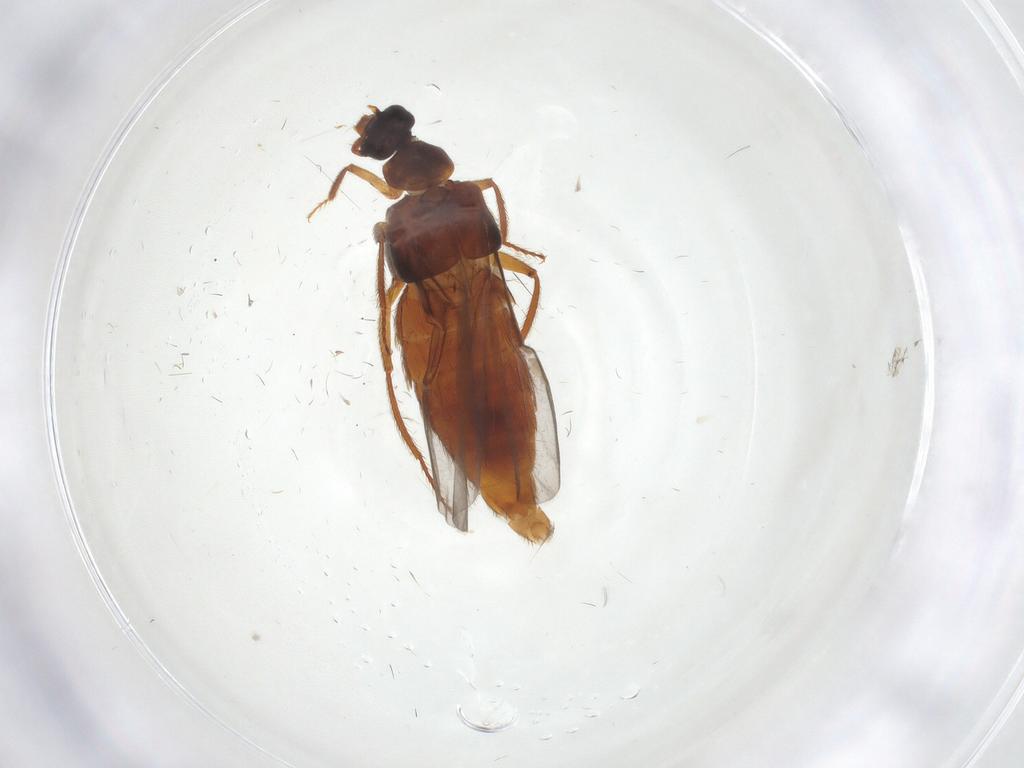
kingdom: Animalia
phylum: Arthropoda
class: Insecta
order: Coleoptera
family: Staphylinidae
